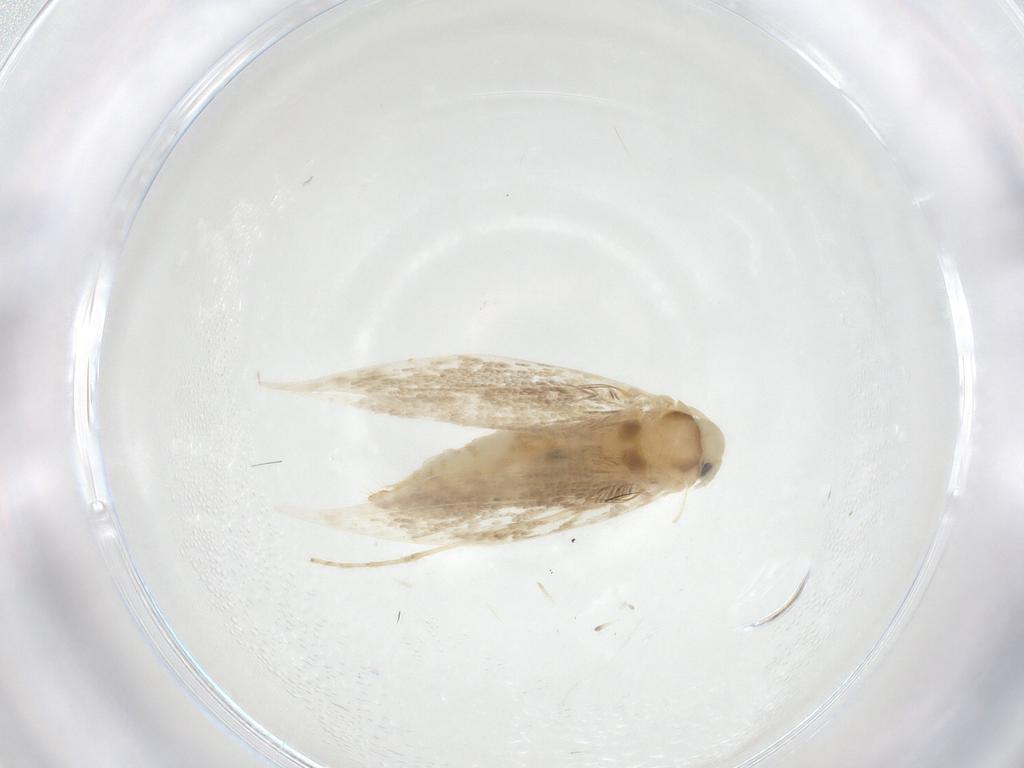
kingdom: Animalia
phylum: Arthropoda
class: Insecta
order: Lepidoptera
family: Gracillariidae
